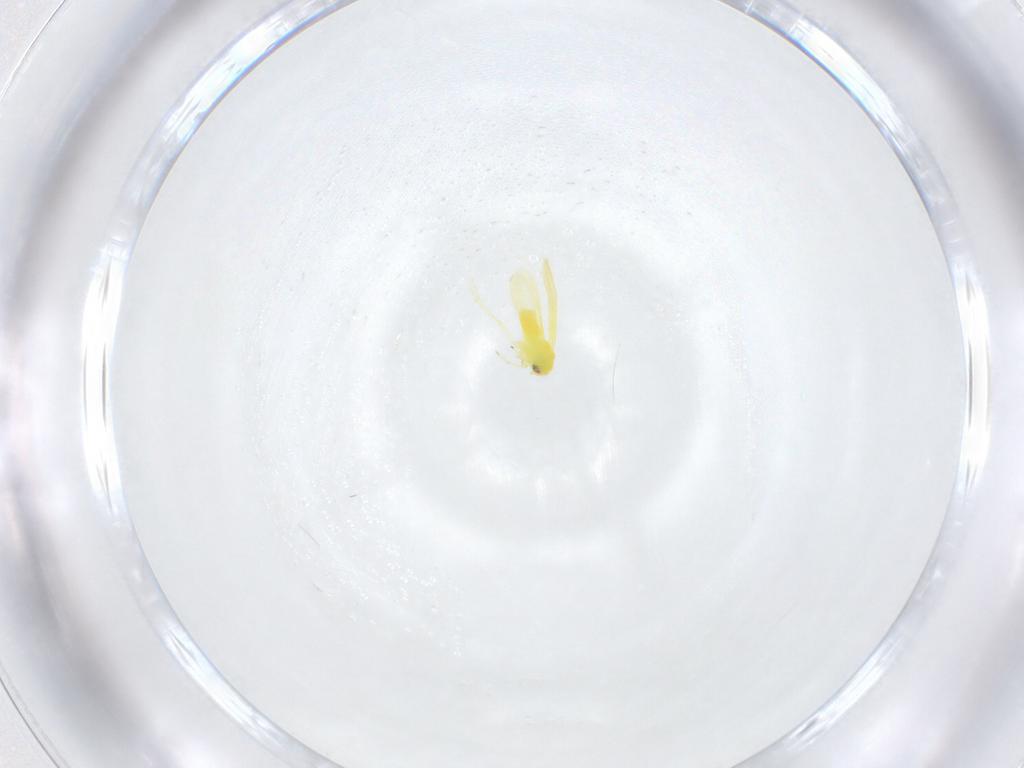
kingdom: Animalia
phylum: Arthropoda
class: Insecta
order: Hemiptera
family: Aleyrodidae
